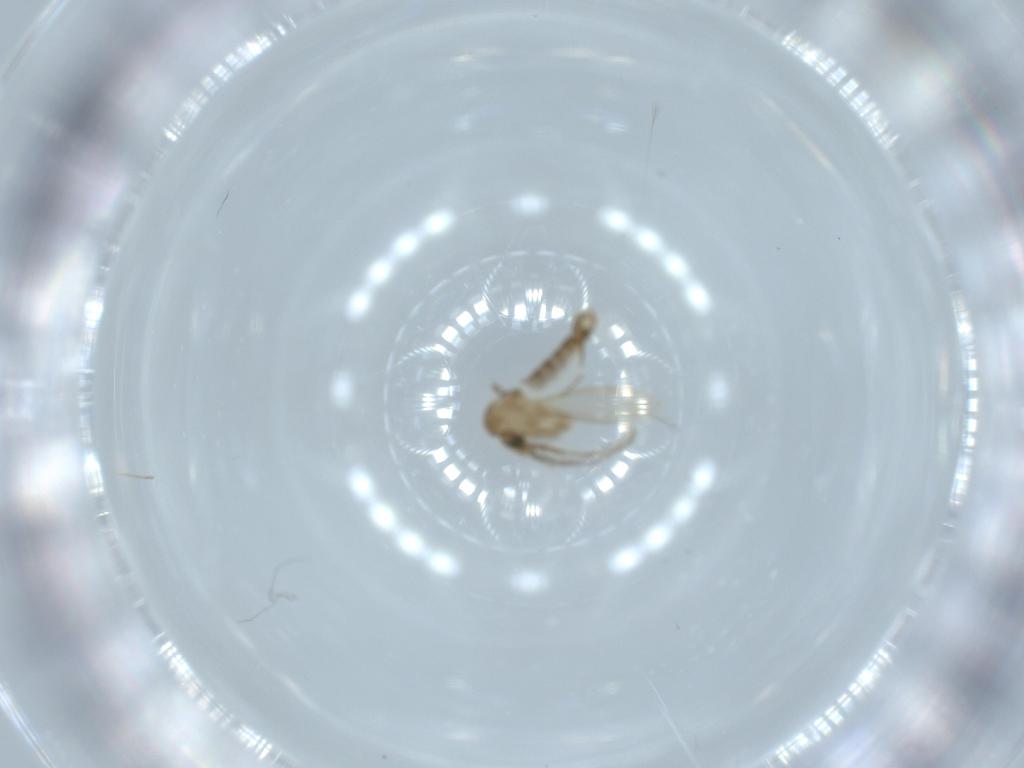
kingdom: Animalia
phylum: Arthropoda
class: Insecta
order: Diptera
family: Psychodidae
